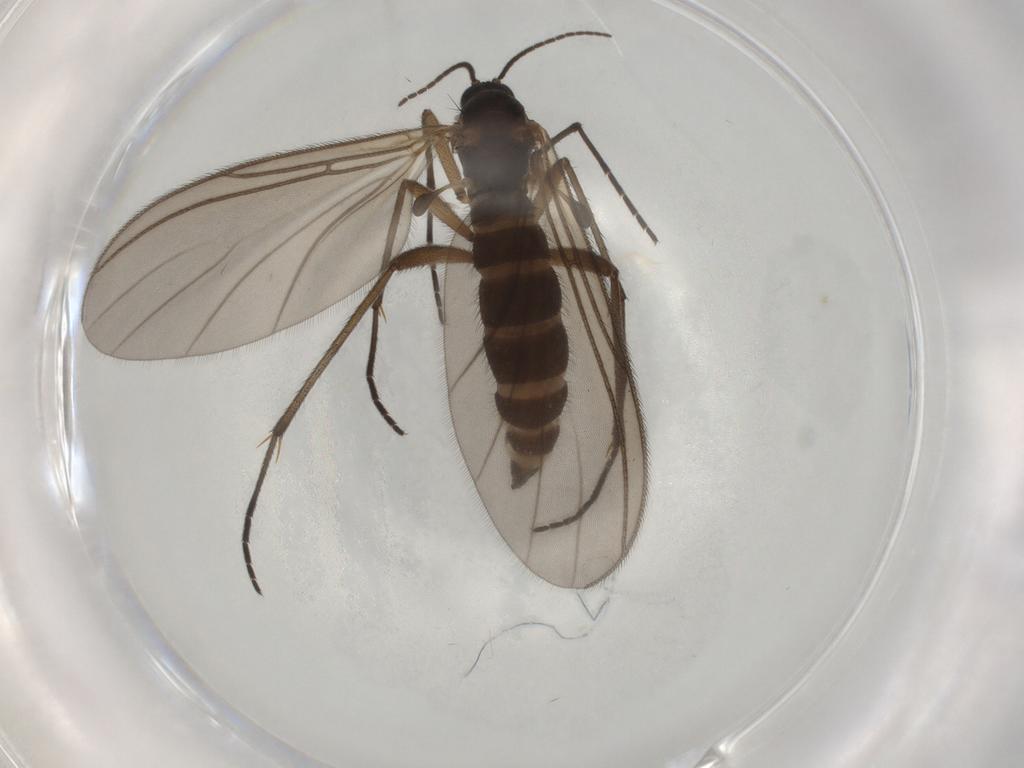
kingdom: Animalia
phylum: Arthropoda
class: Insecta
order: Diptera
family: Sciaridae
